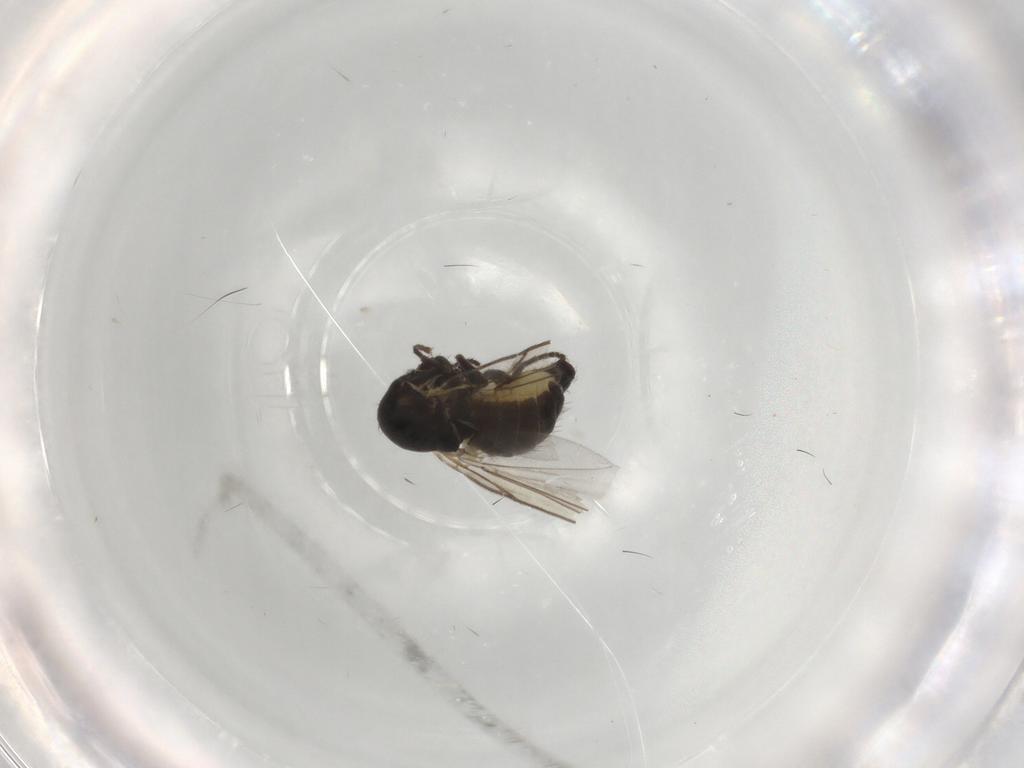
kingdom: Animalia
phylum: Arthropoda
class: Insecta
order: Diptera
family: Agromyzidae
